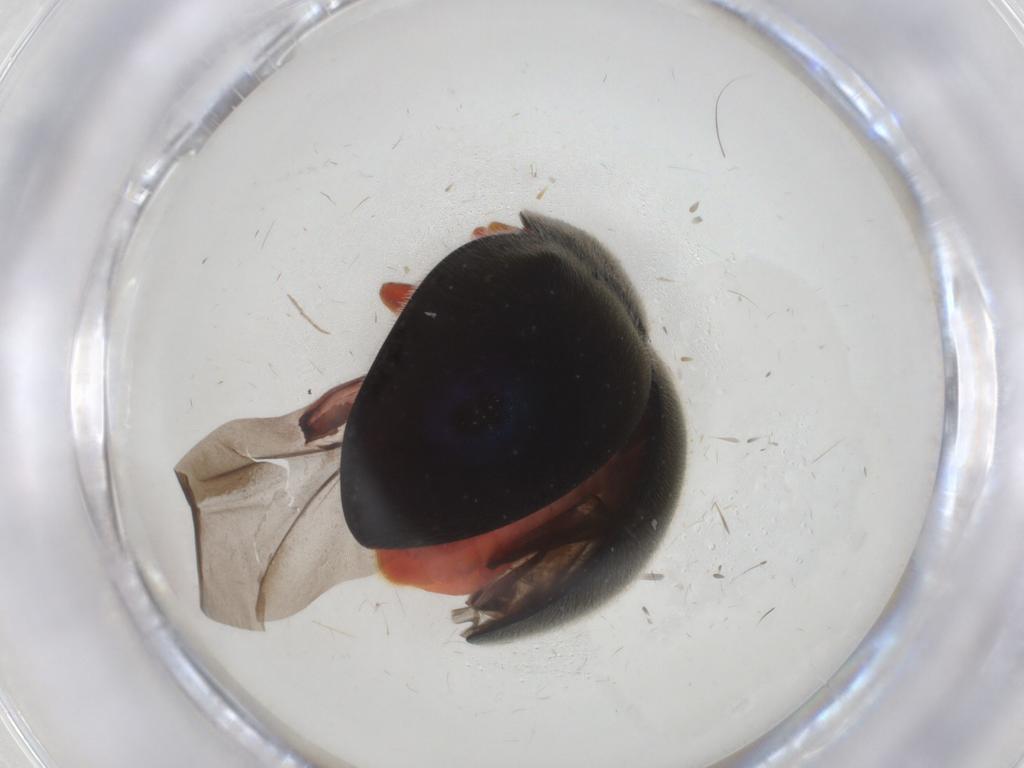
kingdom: Animalia
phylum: Arthropoda
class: Insecta
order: Coleoptera
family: Coccinellidae
